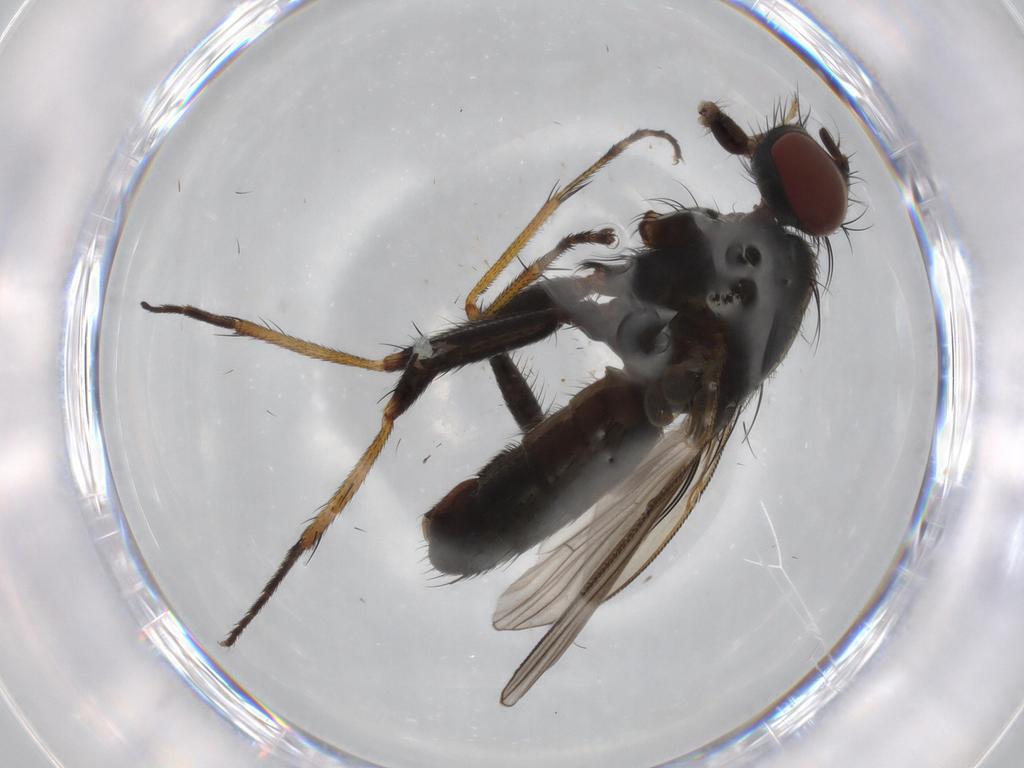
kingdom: Animalia
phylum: Arthropoda
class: Insecta
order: Diptera
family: Muscidae
